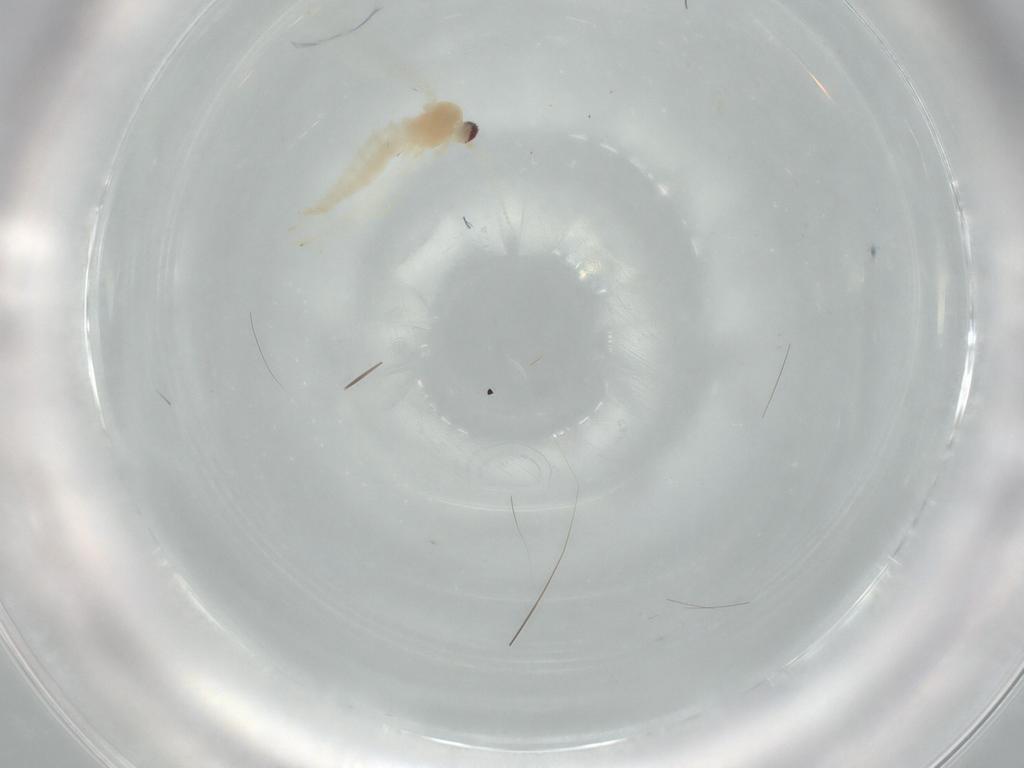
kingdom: Animalia
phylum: Arthropoda
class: Insecta
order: Diptera
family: Cecidomyiidae
